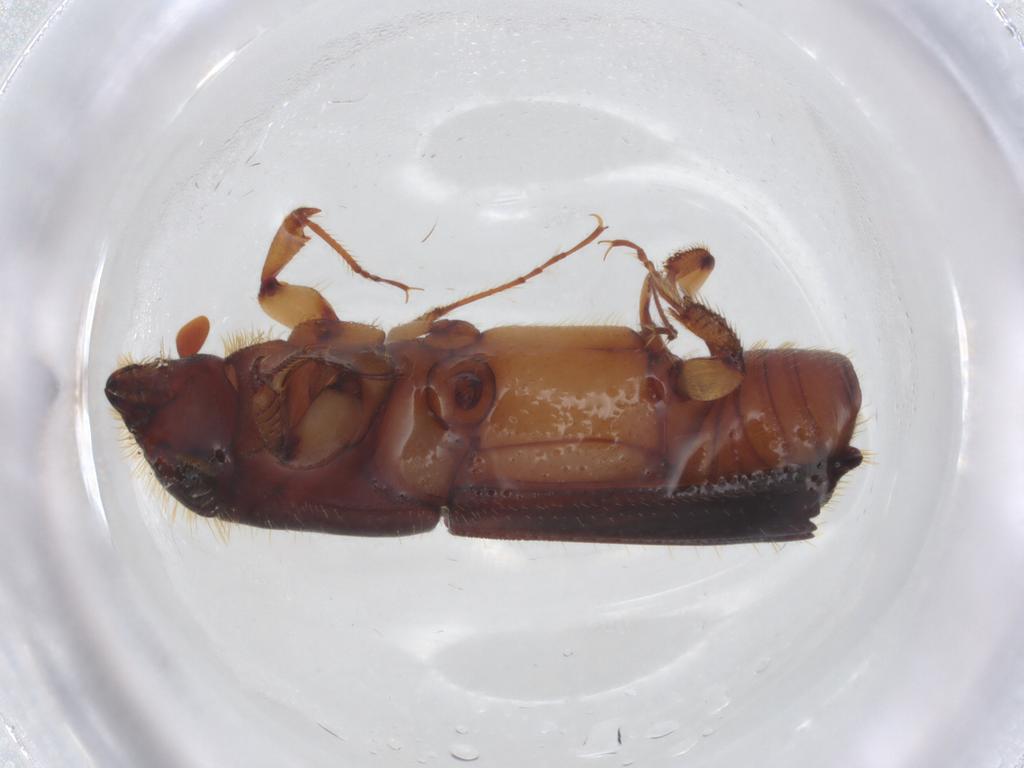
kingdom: Animalia
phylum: Arthropoda
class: Insecta
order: Coleoptera
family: Curculionidae
